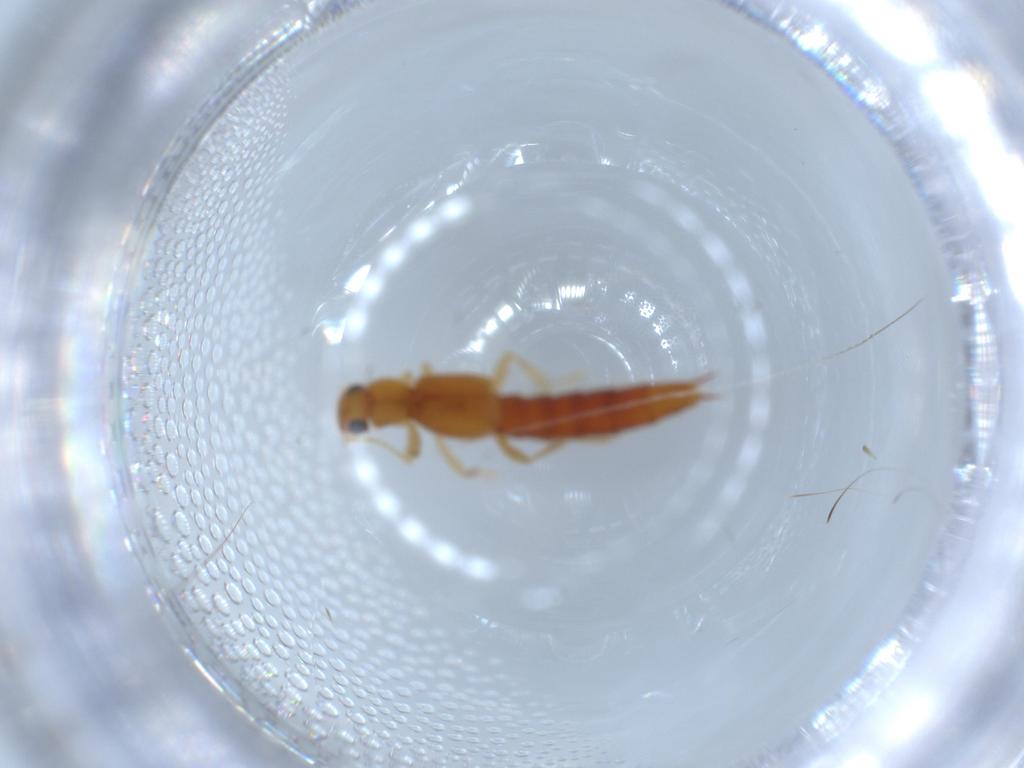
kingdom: Animalia
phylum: Arthropoda
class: Insecta
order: Coleoptera
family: Staphylinidae
